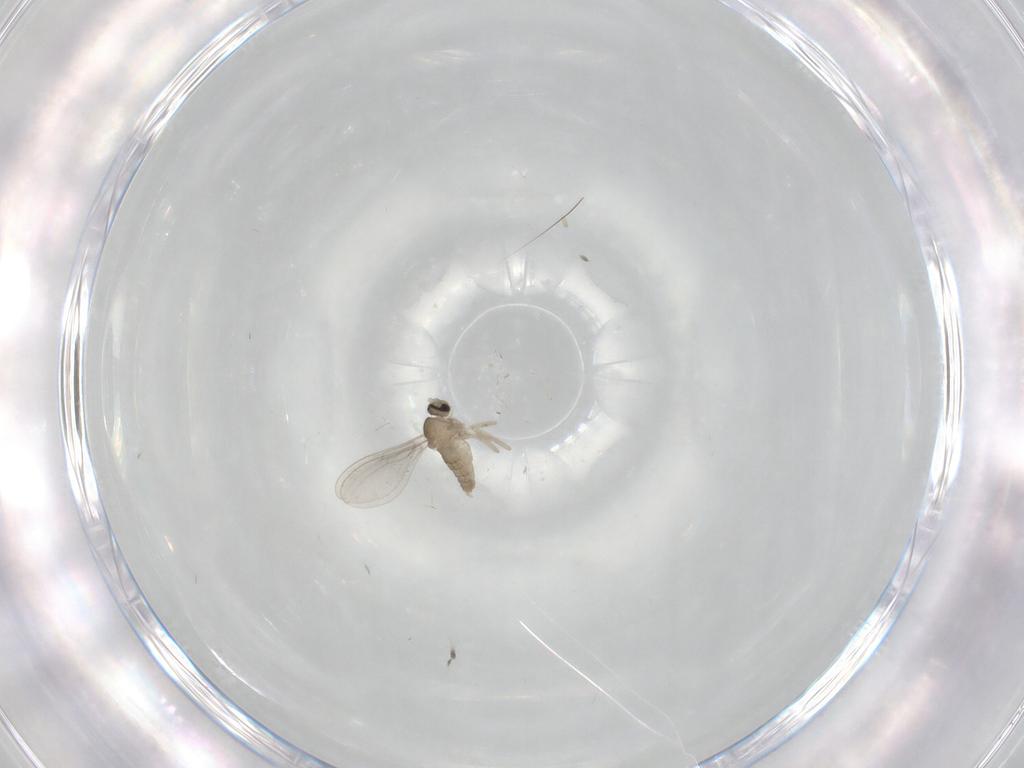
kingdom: Animalia
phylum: Arthropoda
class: Insecta
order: Diptera
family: Cecidomyiidae
